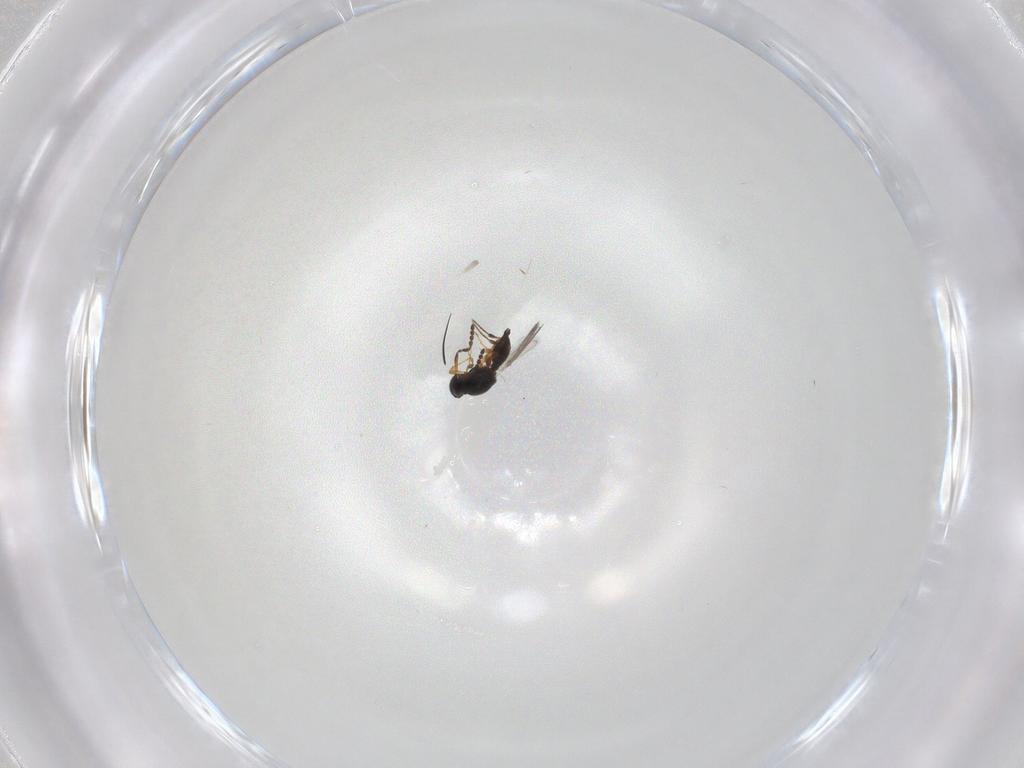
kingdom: Animalia
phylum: Arthropoda
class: Insecta
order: Hymenoptera
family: Platygastridae
